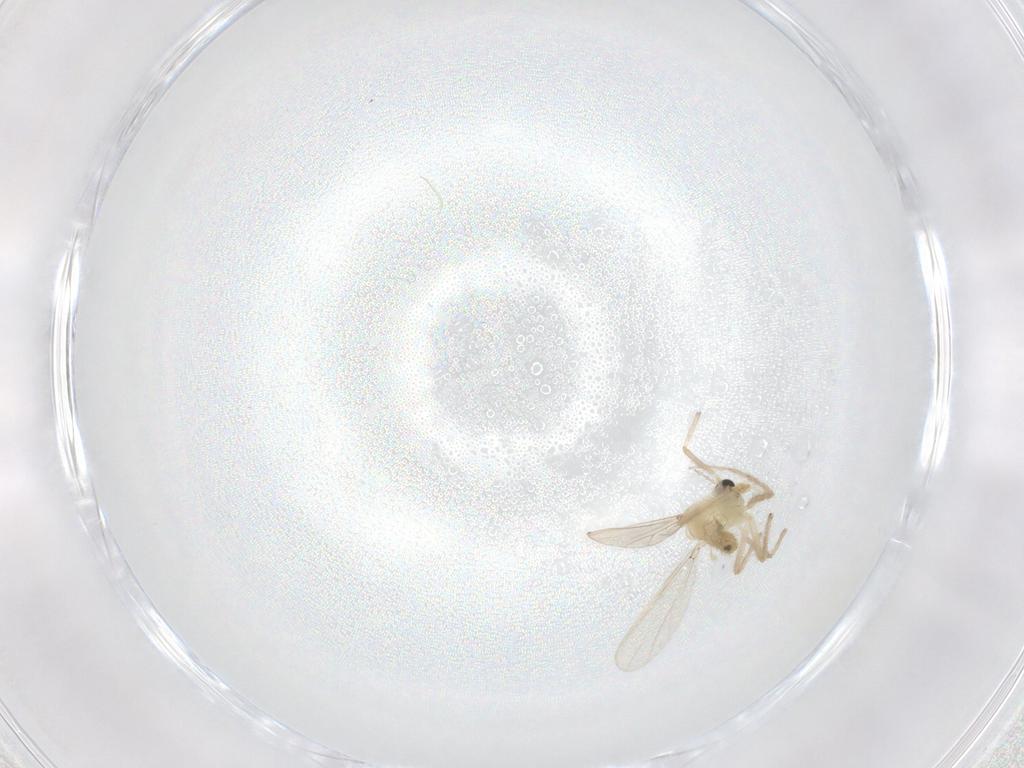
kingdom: Animalia
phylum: Arthropoda
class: Insecta
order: Diptera
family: Chironomidae
